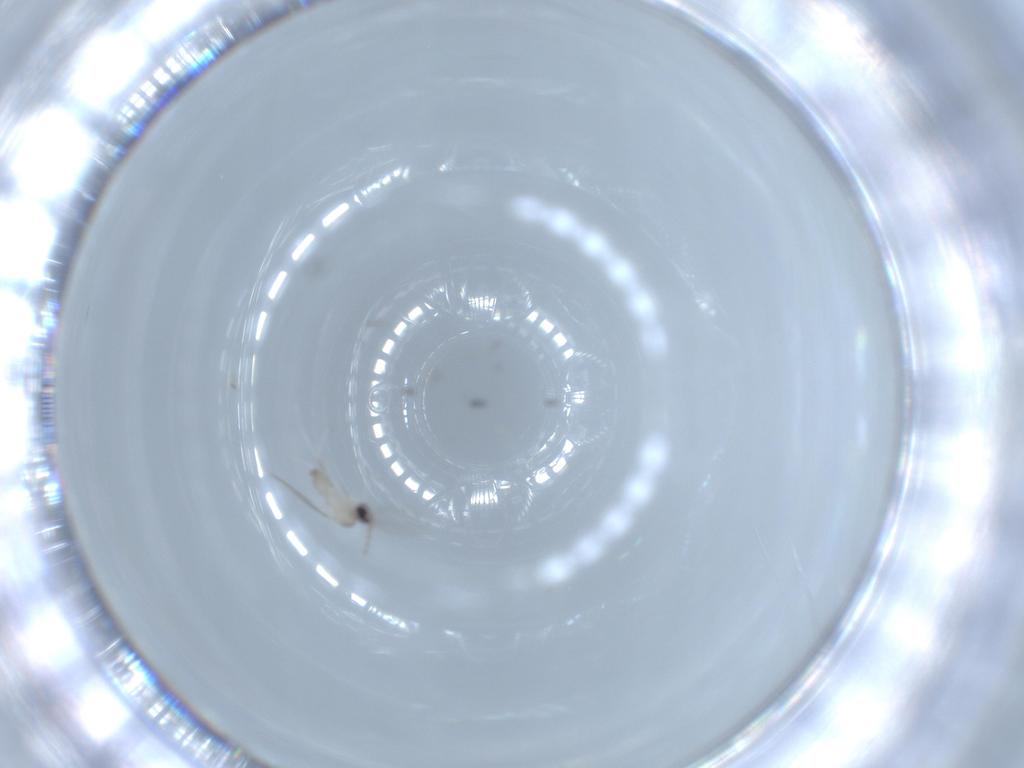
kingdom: Animalia
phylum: Arthropoda
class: Insecta
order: Diptera
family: Cecidomyiidae
